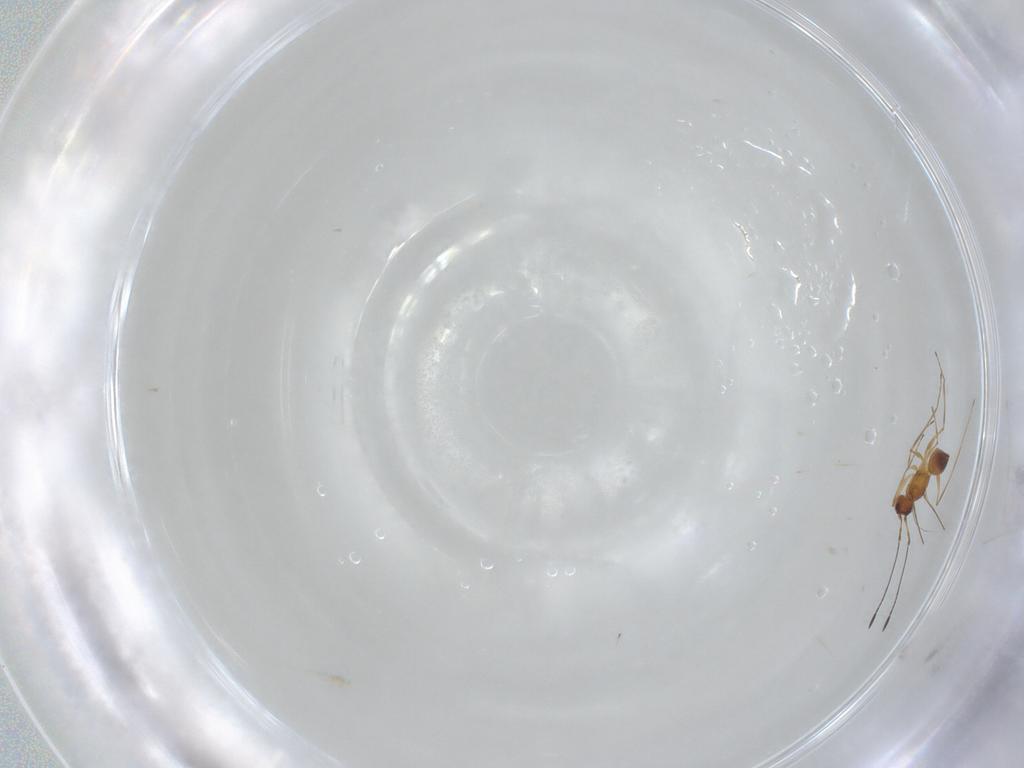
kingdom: Animalia
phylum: Arthropoda
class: Insecta
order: Hymenoptera
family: Mymaridae
